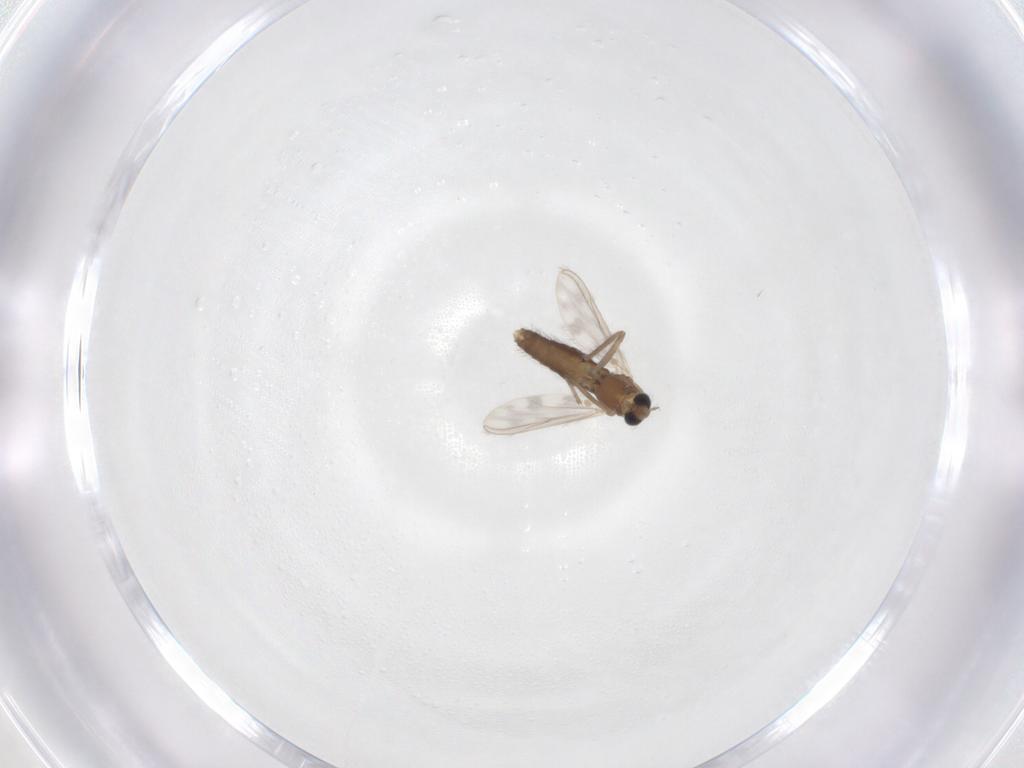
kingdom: Animalia
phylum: Arthropoda
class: Insecta
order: Diptera
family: Chironomidae
